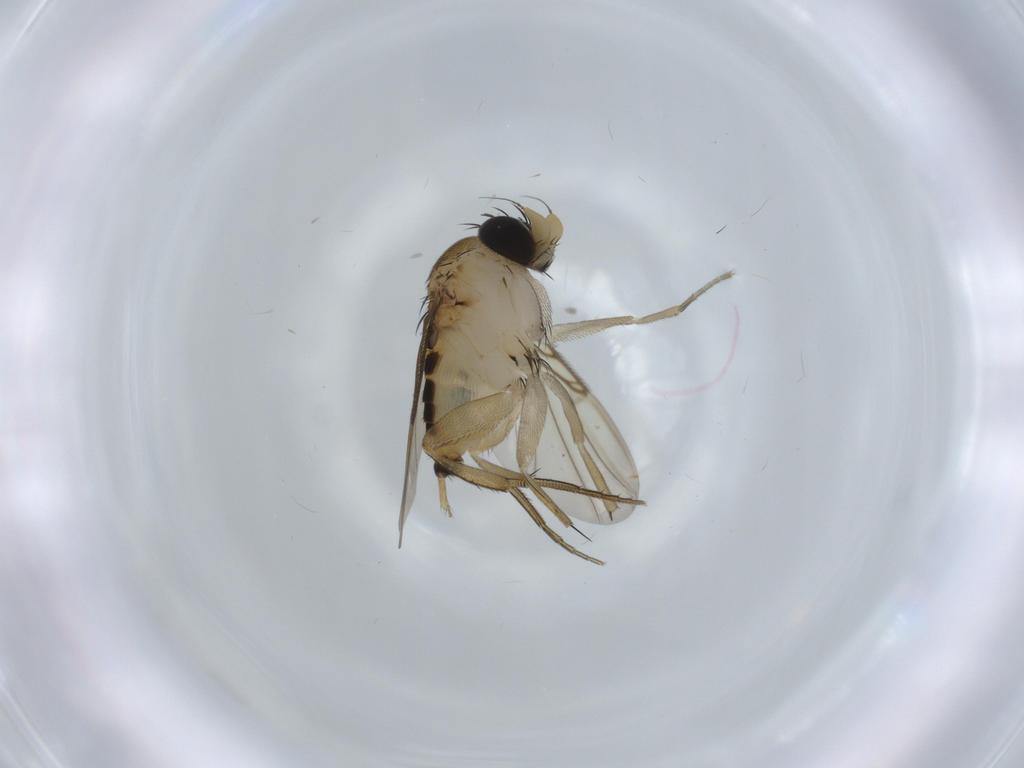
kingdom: Animalia
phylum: Arthropoda
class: Insecta
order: Diptera
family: Phoridae
